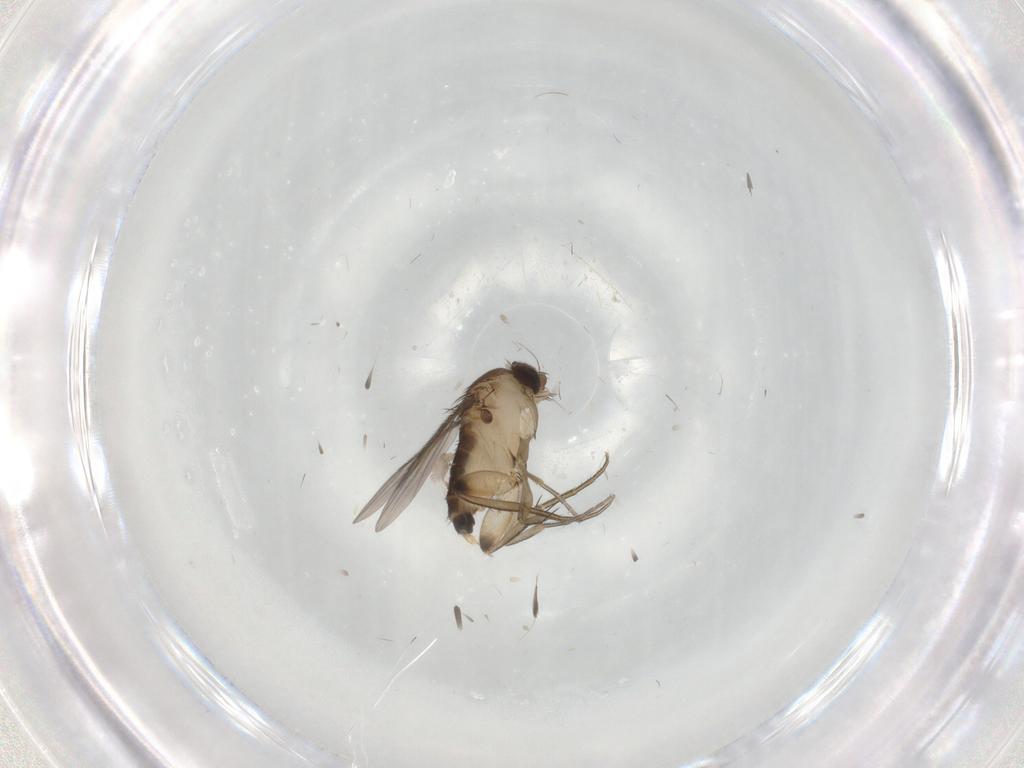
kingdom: Animalia
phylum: Arthropoda
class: Insecta
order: Diptera
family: Phoridae
